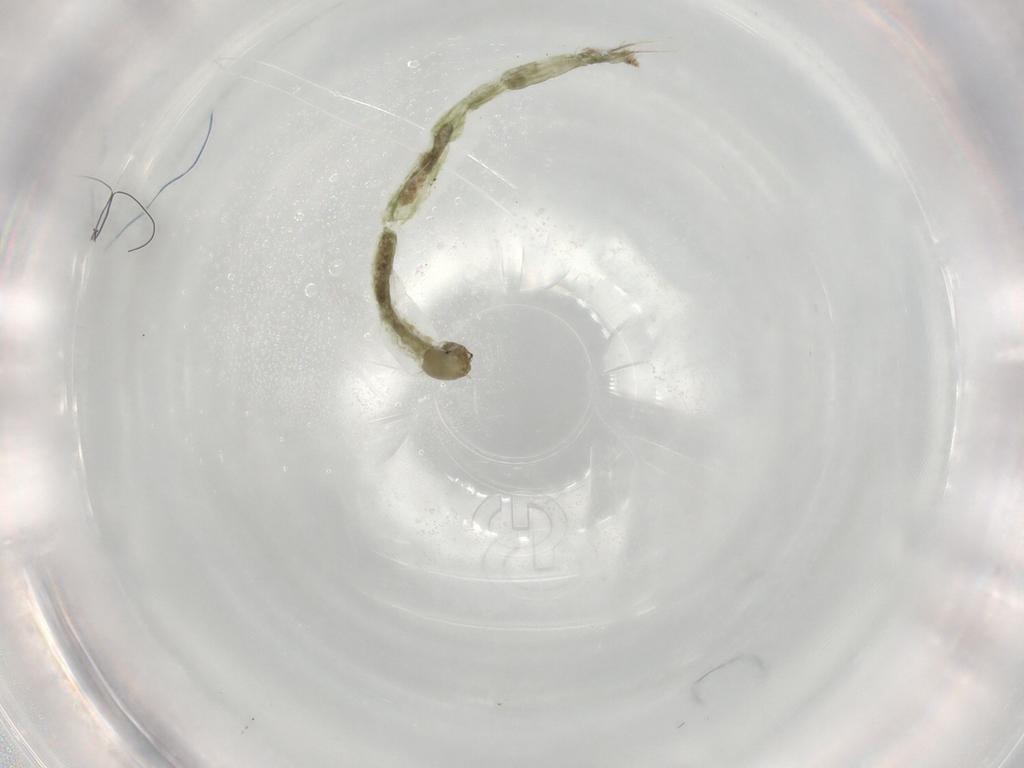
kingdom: Animalia
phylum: Arthropoda
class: Insecta
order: Diptera
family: Chironomidae
